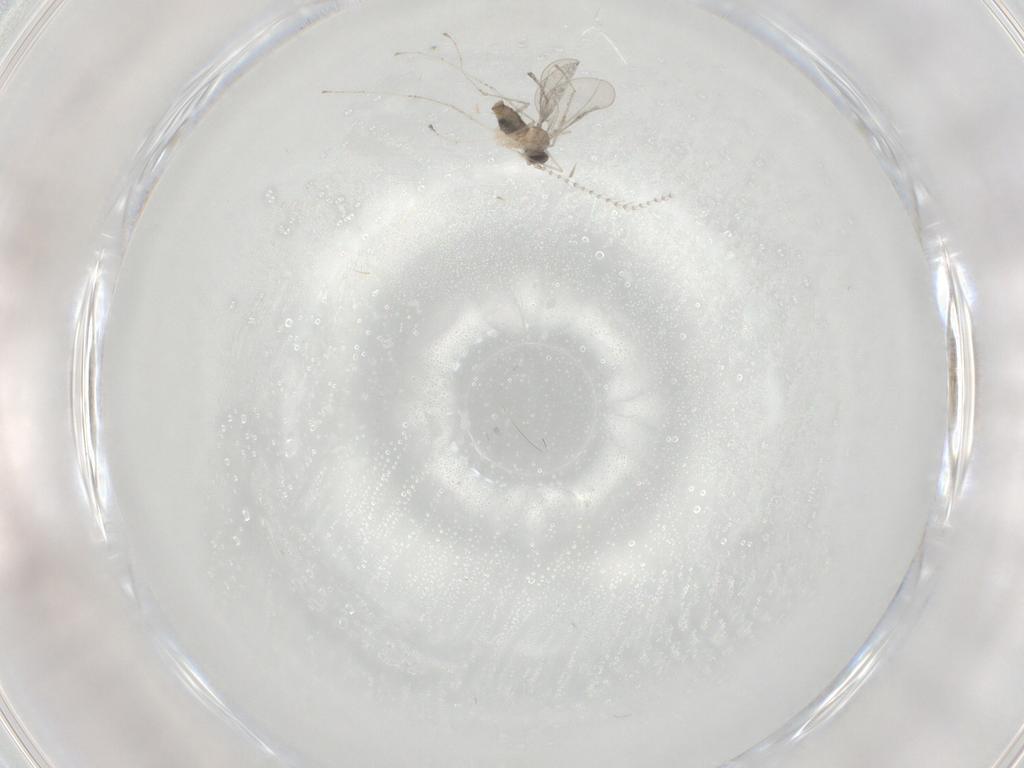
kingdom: Animalia
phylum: Arthropoda
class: Insecta
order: Diptera
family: Cecidomyiidae
